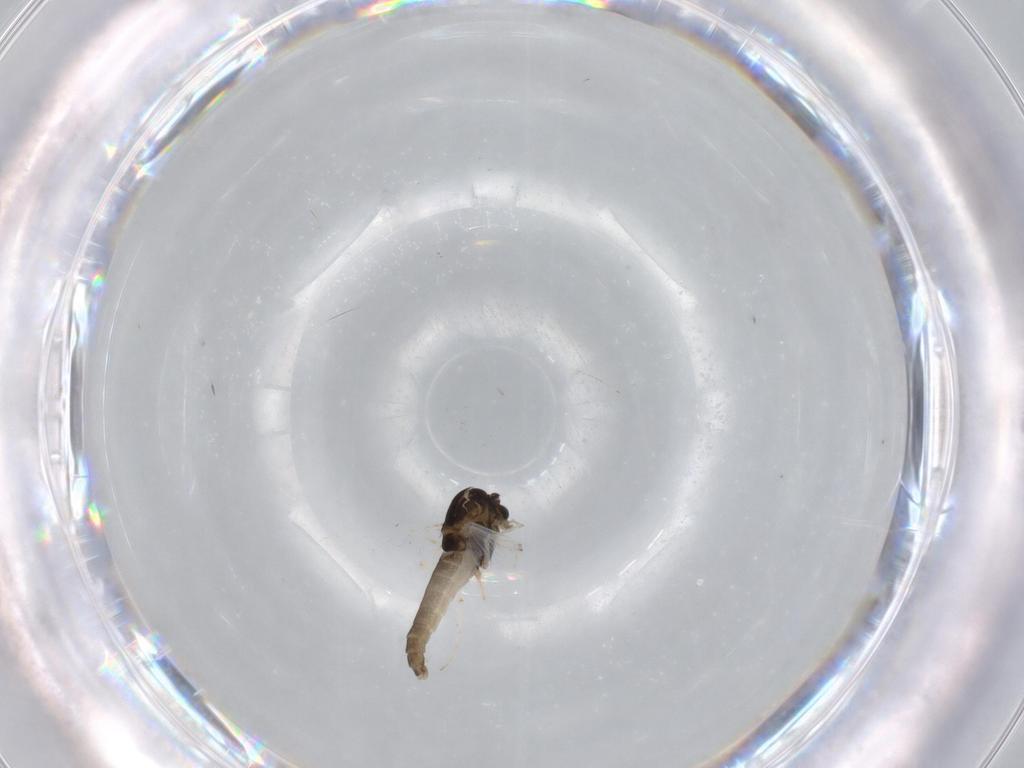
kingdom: Animalia
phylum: Arthropoda
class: Insecta
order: Diptera
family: Chironomidae
